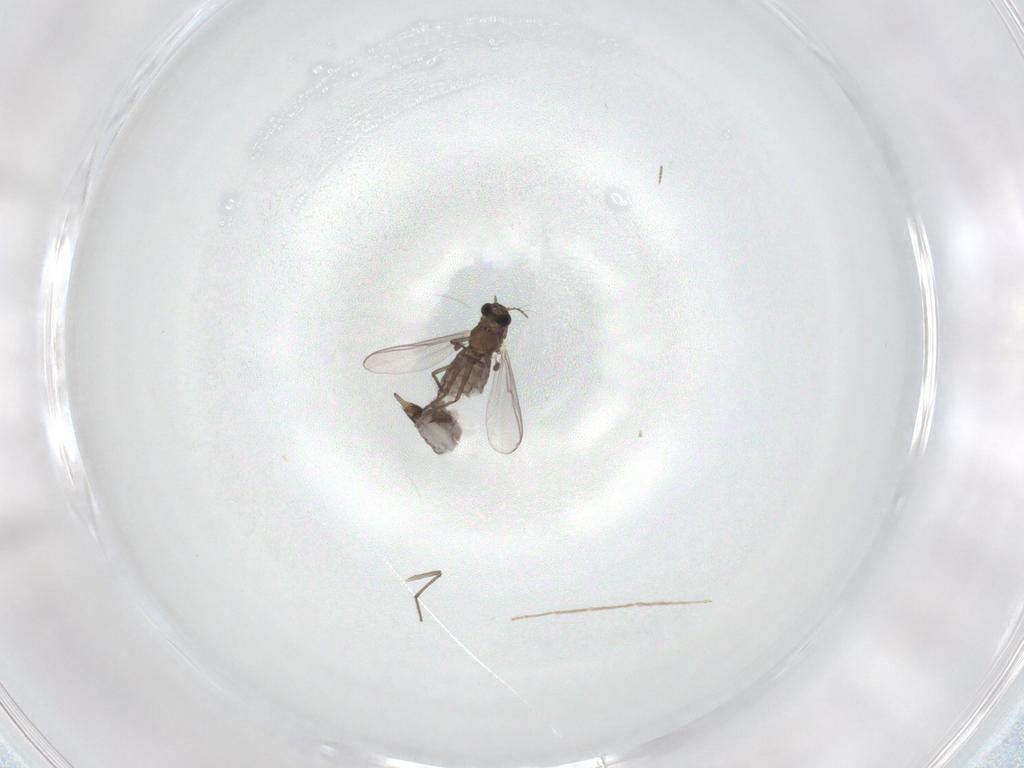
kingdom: Animalia
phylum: Arthropoda
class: Insecta
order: Diptera
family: Chironomidae
